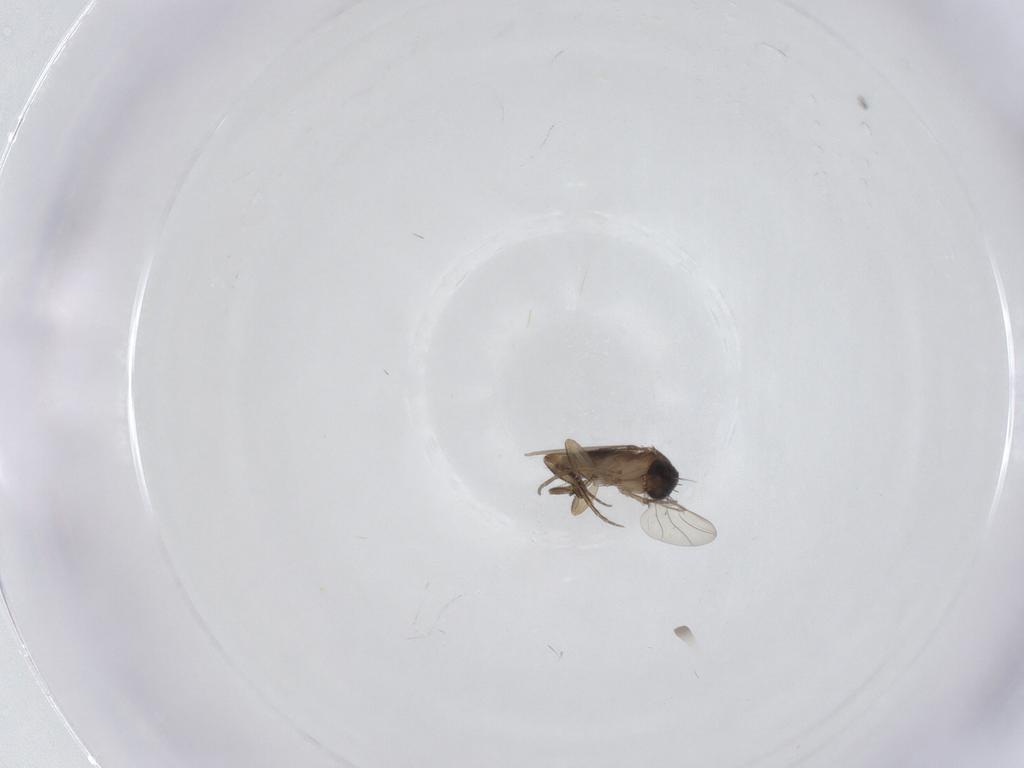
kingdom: Animalia
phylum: Arthropoda
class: Insecta
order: Diptera
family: Phoridae
